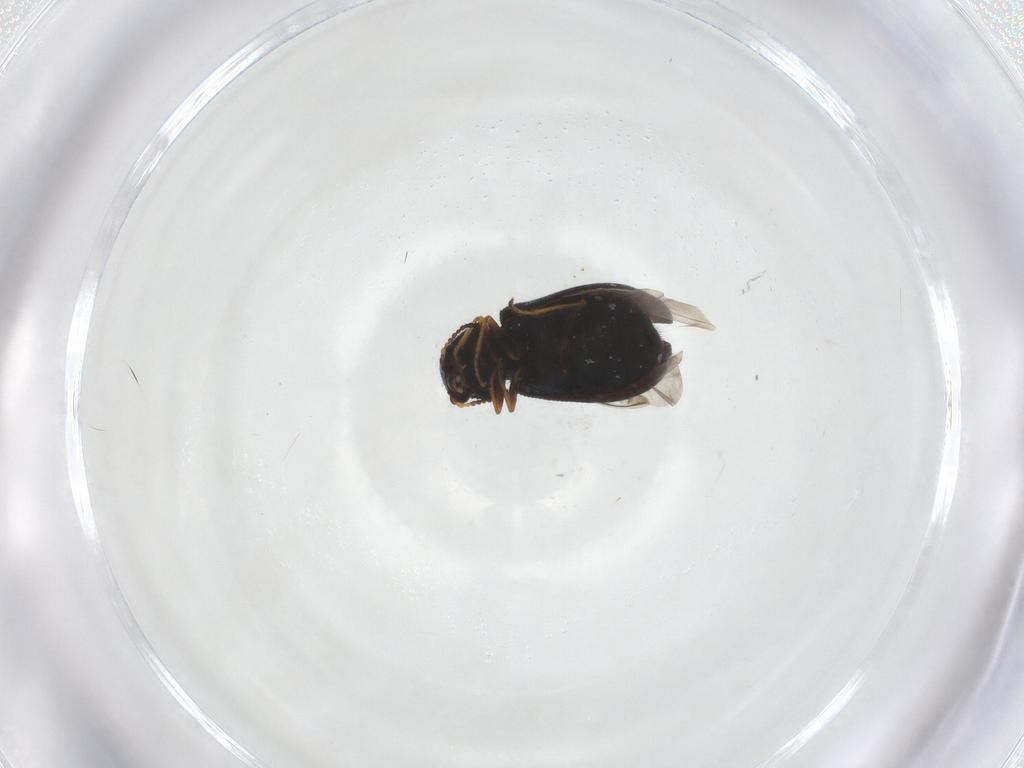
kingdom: Animalia
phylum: Arthropoda
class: Insecta
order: Coleoptera
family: Melyridae
